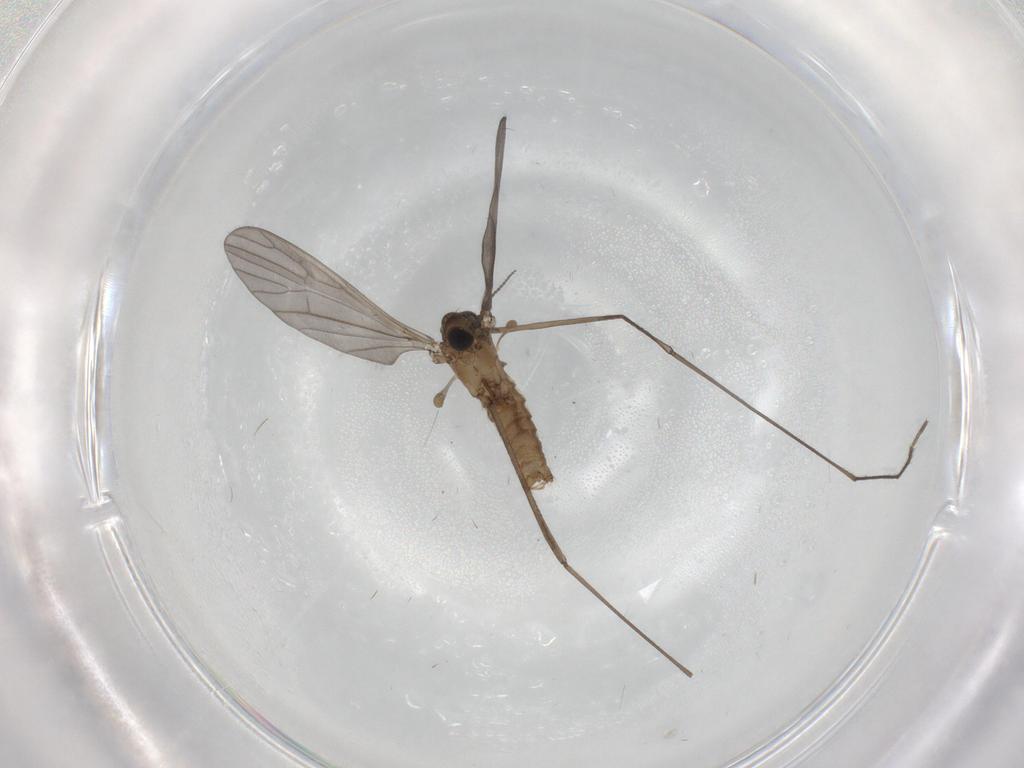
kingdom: Animalia
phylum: Arthropoda
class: Insecta
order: Diptera
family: Limoniidae
